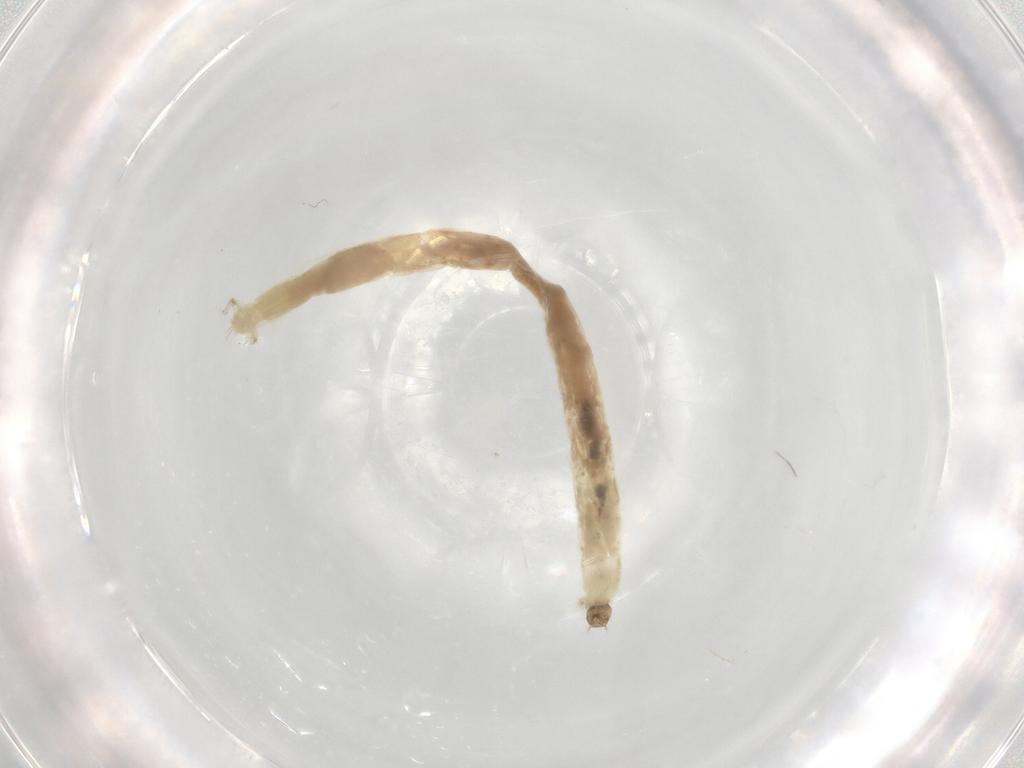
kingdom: Animalia
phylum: Arthropoda
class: Insecta
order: Diptera
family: Chironomidae
